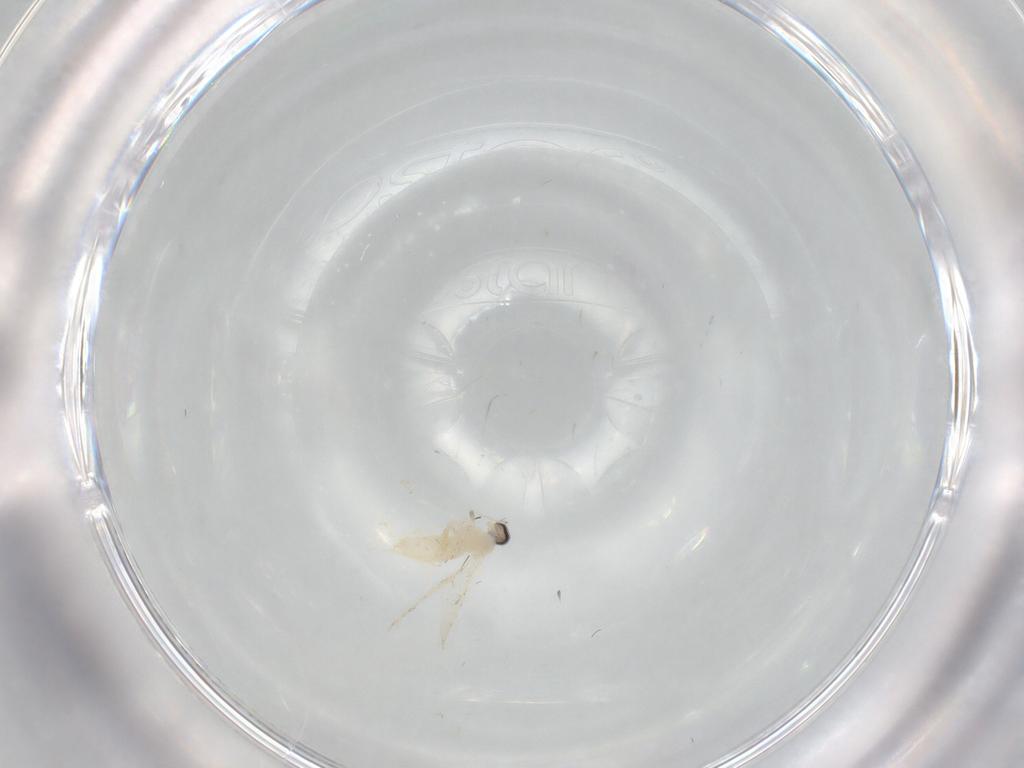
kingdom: Animalia
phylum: Arthropoda
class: Insecta
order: Diptera
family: Cecidomyiidae
